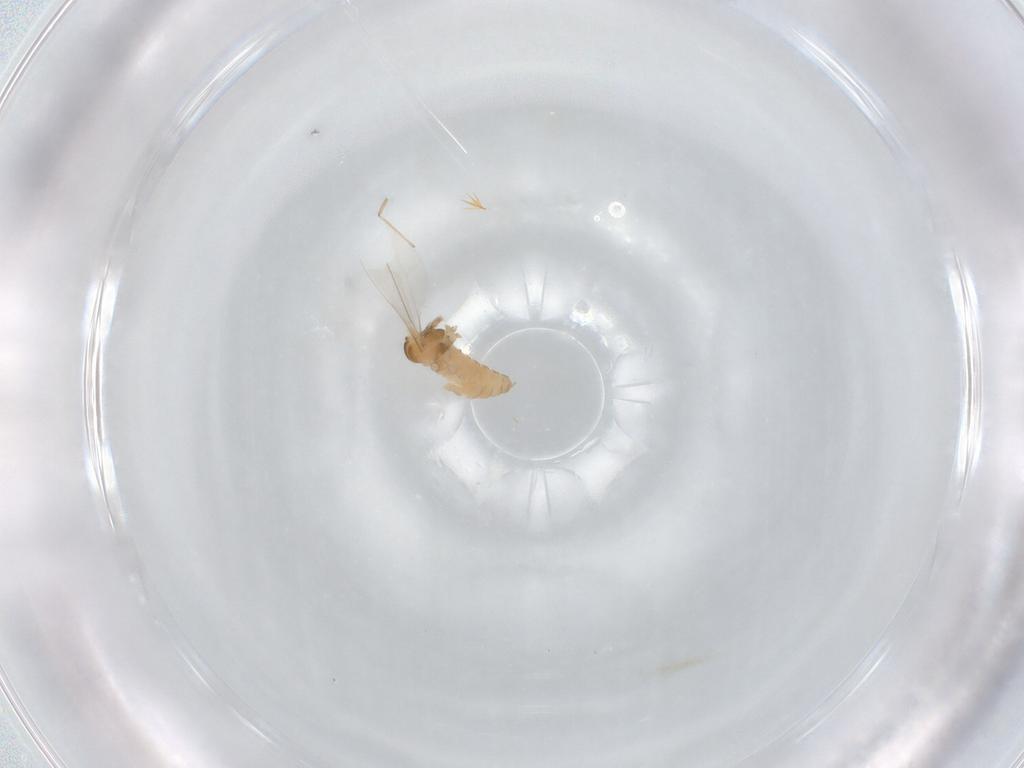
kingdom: Animalia
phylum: Arthropoda
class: Insecta
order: Diptera
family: Cecidomyiidae
